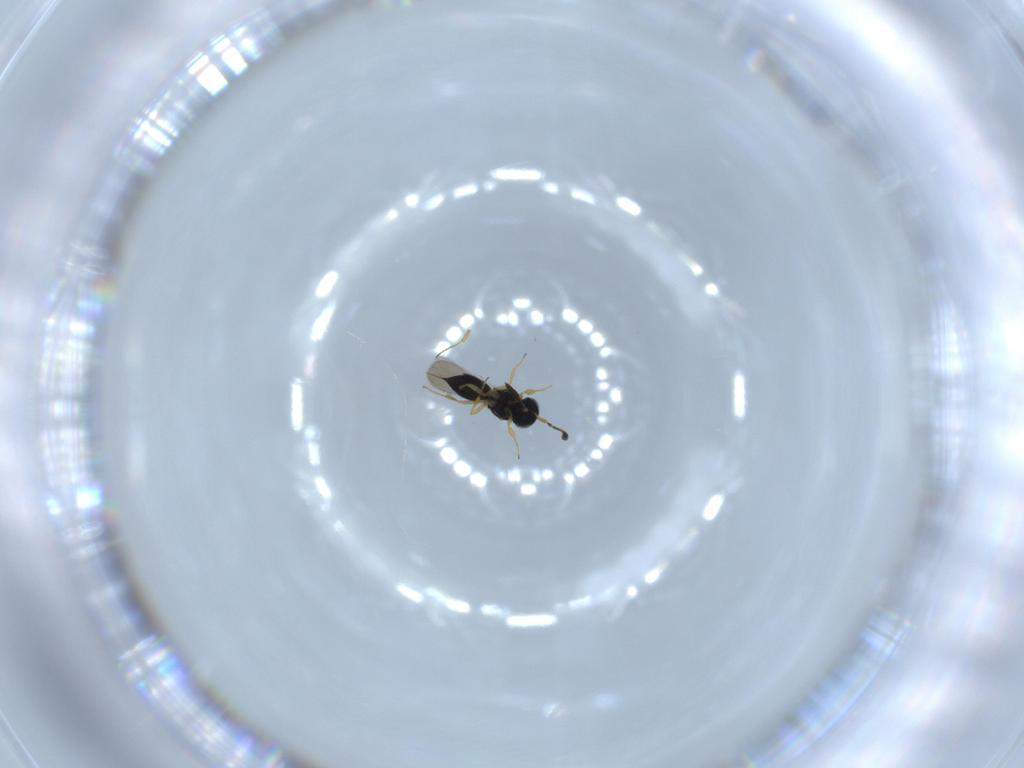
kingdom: Animalia
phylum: Arthropoda
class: Insecta
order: Hymenoptera
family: Scelionidae
